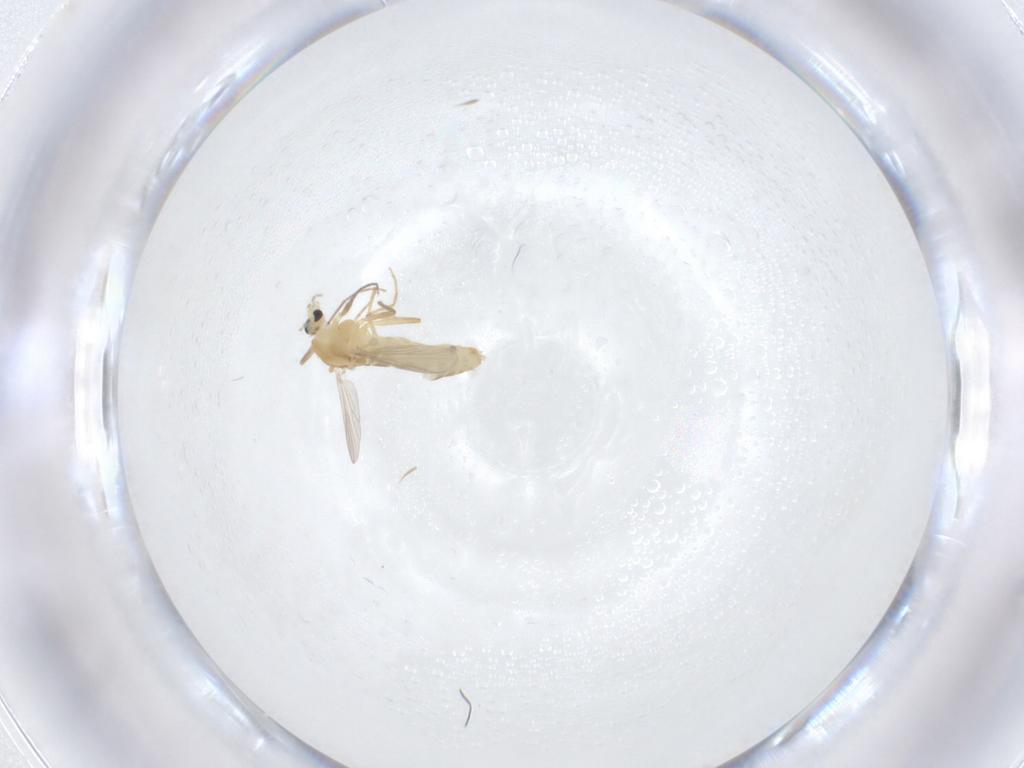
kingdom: Animalia
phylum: Arthropoda
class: Insecta
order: Diptera
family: Chironomidae
